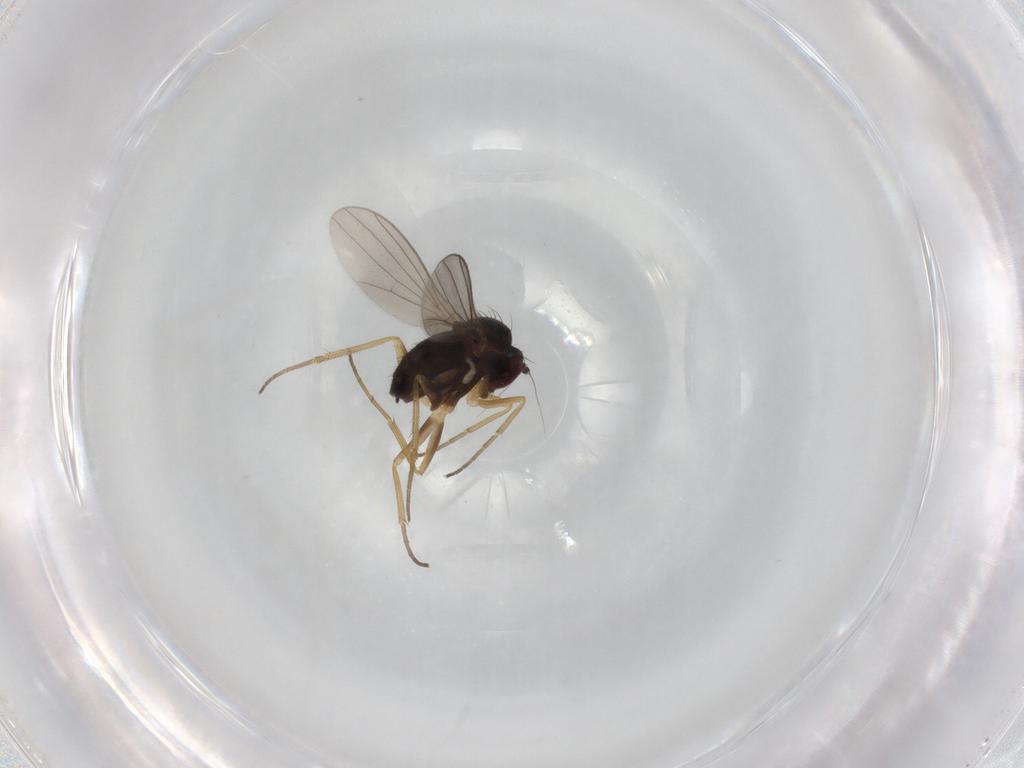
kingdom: Animalia
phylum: Arthropoda
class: Insecta
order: Diptera
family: Dolichopodidae
